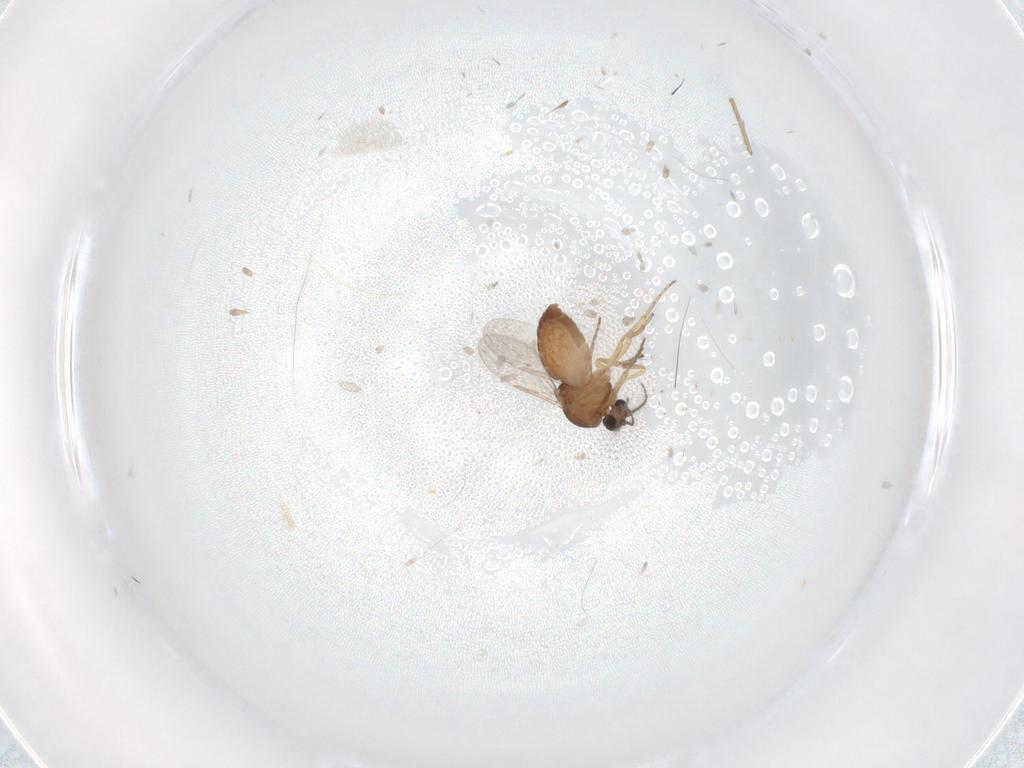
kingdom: Animalia
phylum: Arthropoda
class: Insecta
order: Diptera
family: Ceratopogonidae
